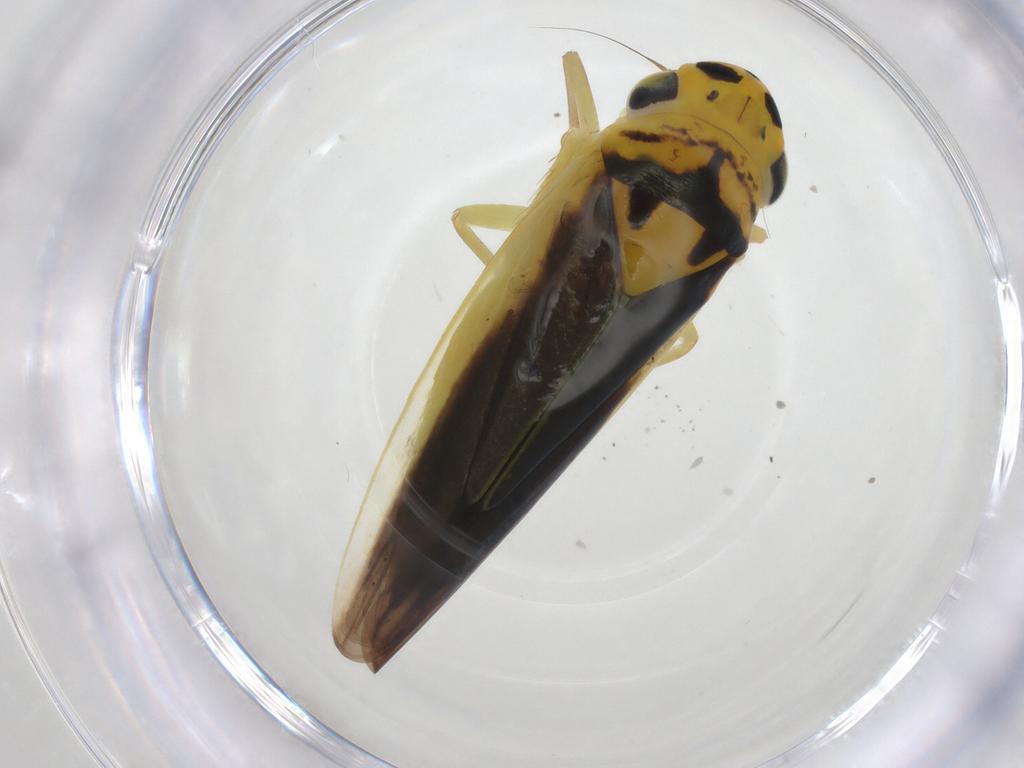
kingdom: Animalia
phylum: Arthropoda
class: Insecta
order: Hemiptera
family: Cicadellidae
